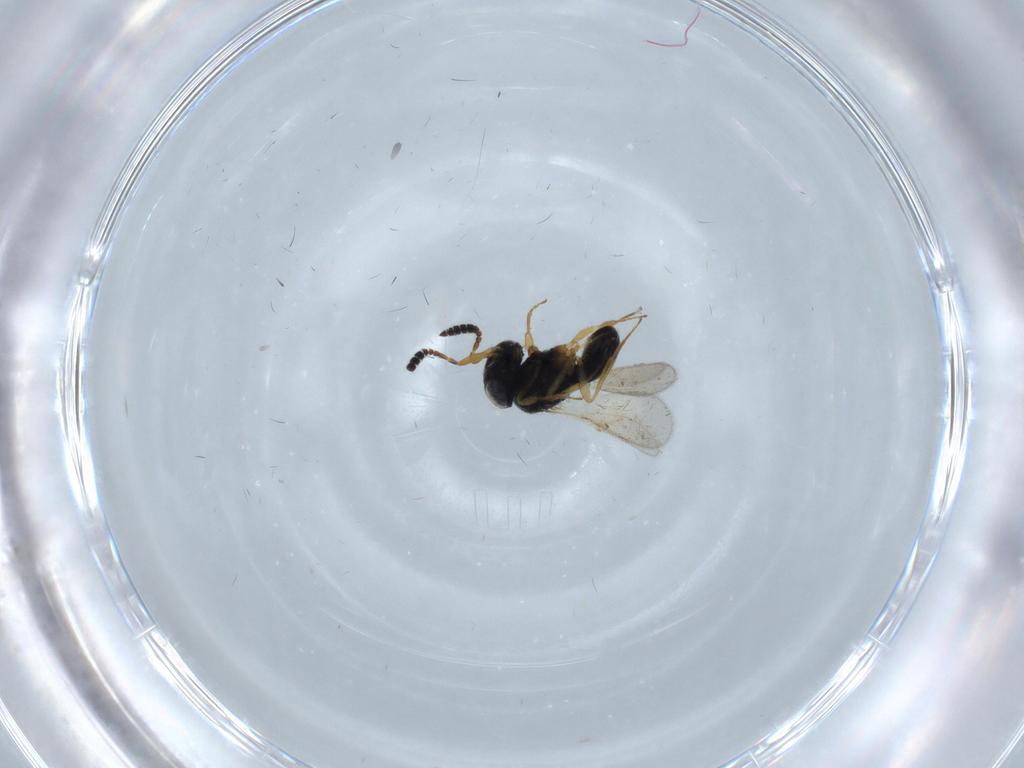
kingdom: Animalia
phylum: Arthropoda
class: Insecta
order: Hymenoptera
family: Scelionidae
